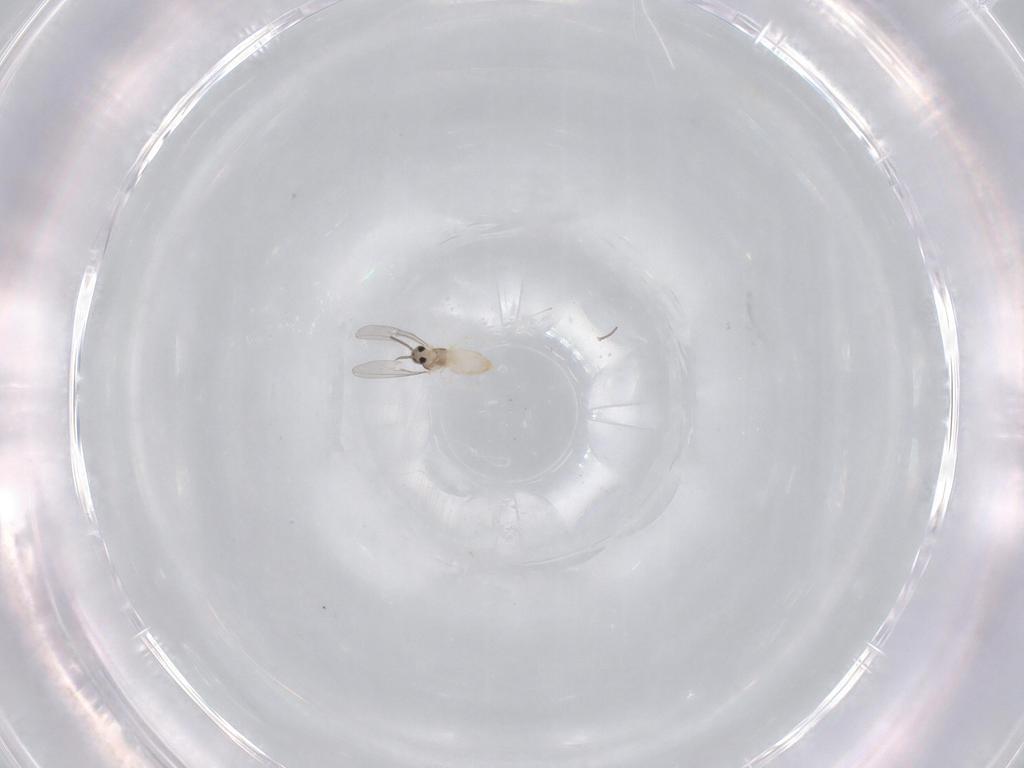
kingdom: Animalia
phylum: Arthropoda
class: Insecta
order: Diptera
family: Cecidomyiidae
